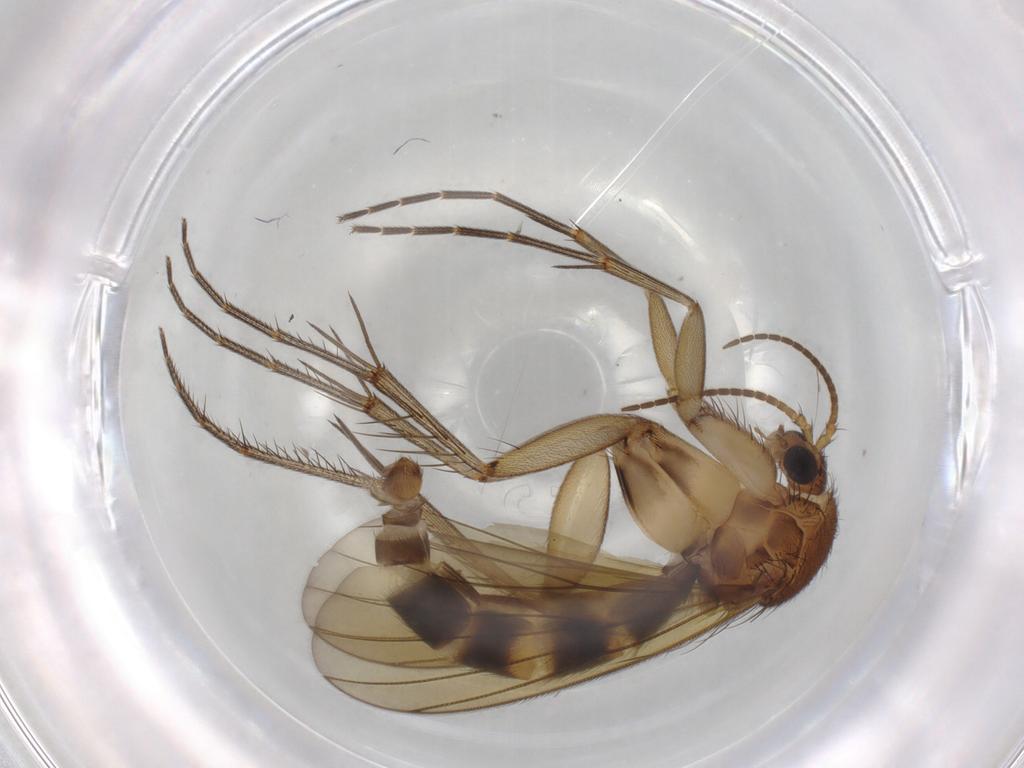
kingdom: Animalia
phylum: Arthropoda
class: Insecta
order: Diptera
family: Mycetophilidae
